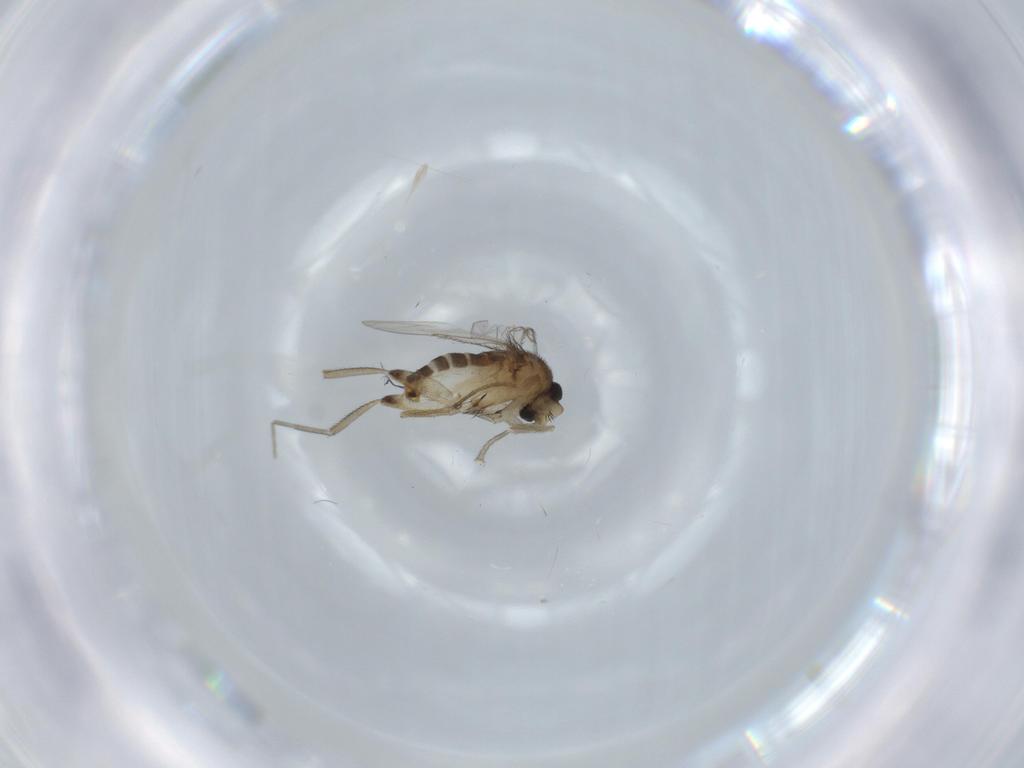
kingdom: Animalia
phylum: Arthropoda
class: Insecta
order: Diptera
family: Phoridae
